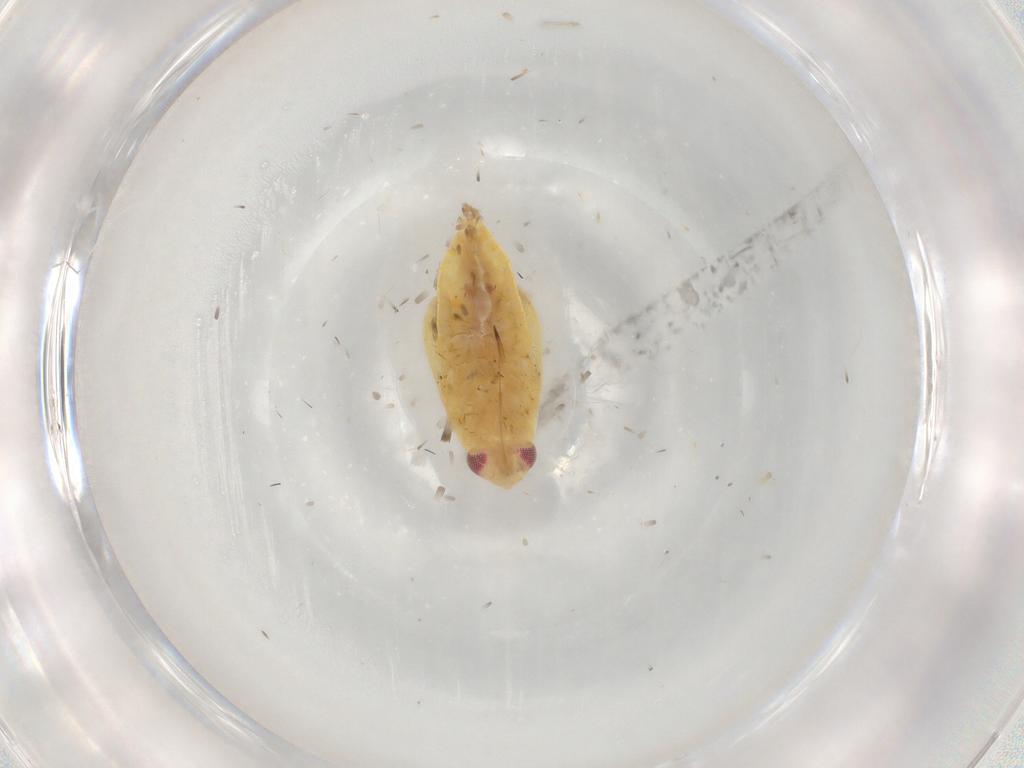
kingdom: Animalia
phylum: Arthropoda
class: Insecta
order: Hemiptera
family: Miridae
